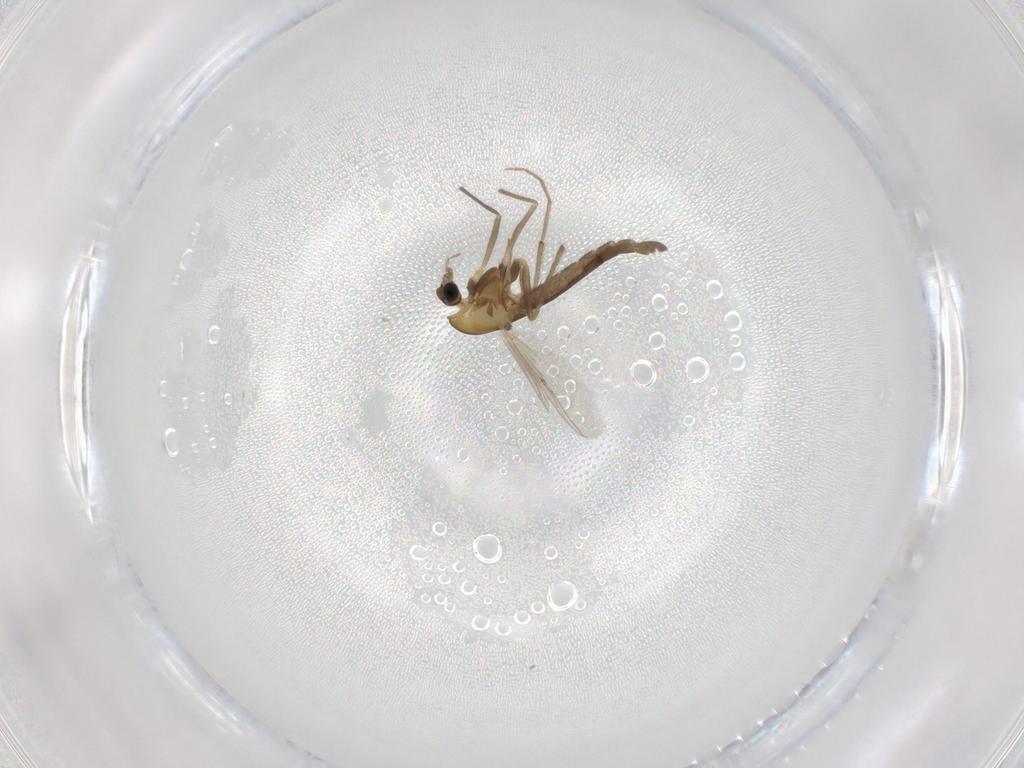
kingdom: Animalia
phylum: Arthropoda
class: Insecta
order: Diptera
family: Chironomidae
